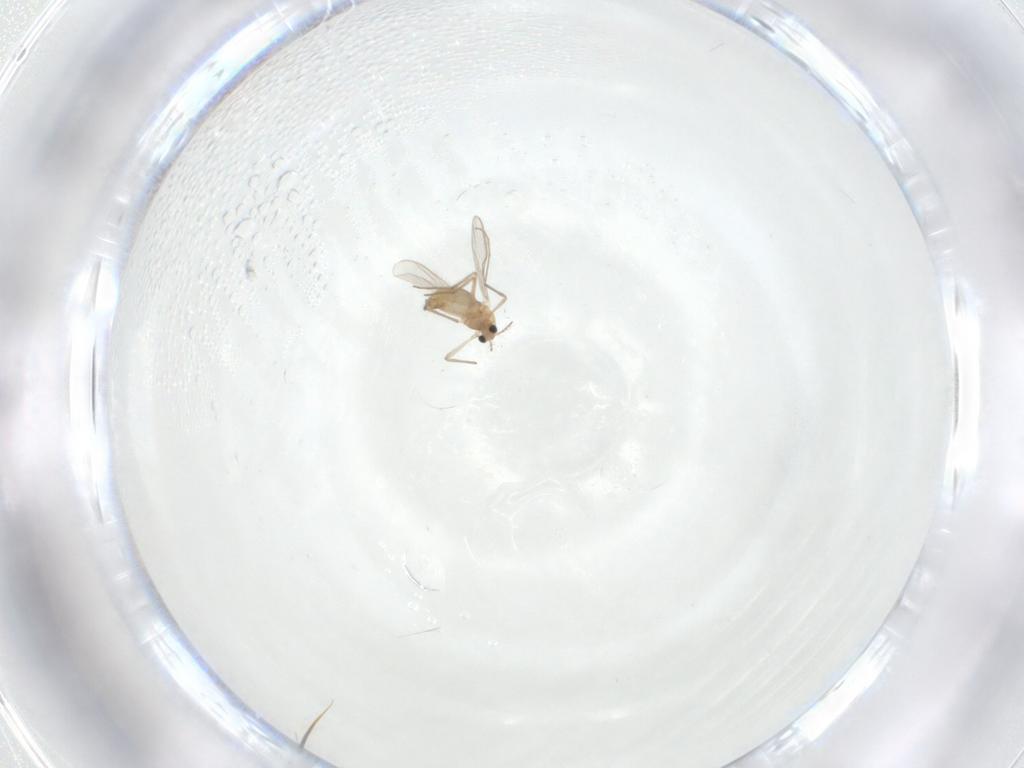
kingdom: Animalia
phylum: Arthropoda
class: Insecta
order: Diptera
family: Chironomidae
